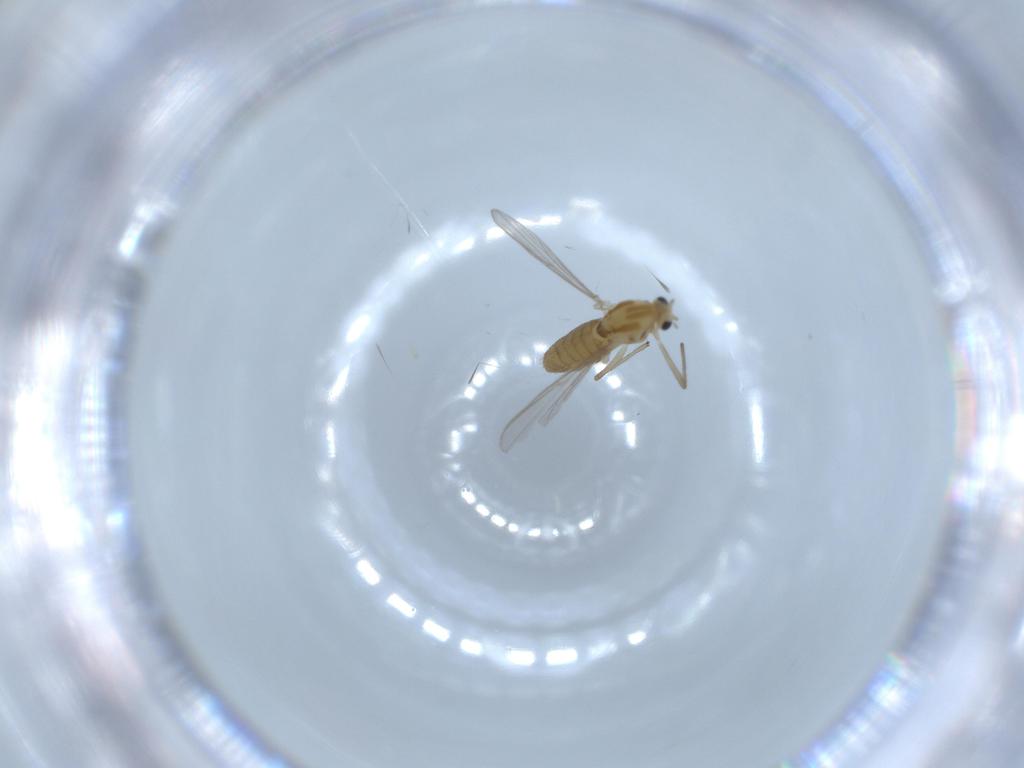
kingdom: Animalia
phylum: Arthropoda
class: Insecta
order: Diptera
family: Chironomidae
